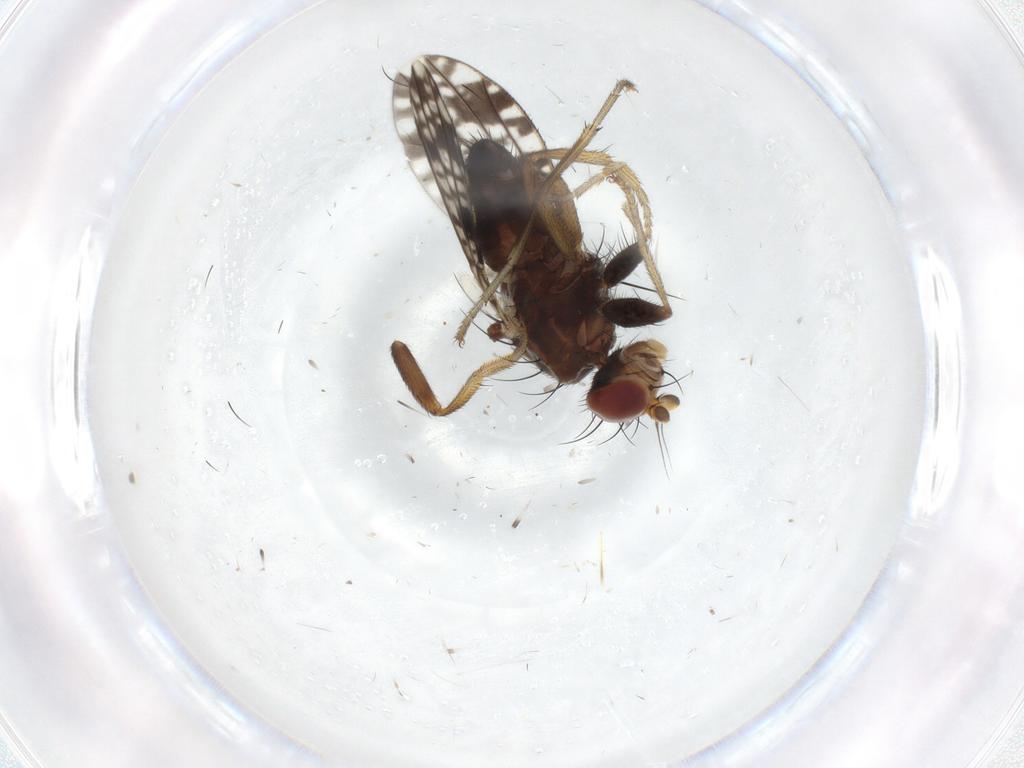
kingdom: Animalia
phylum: Arthropoda
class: Insecta
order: Diptera
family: Tephritidae
